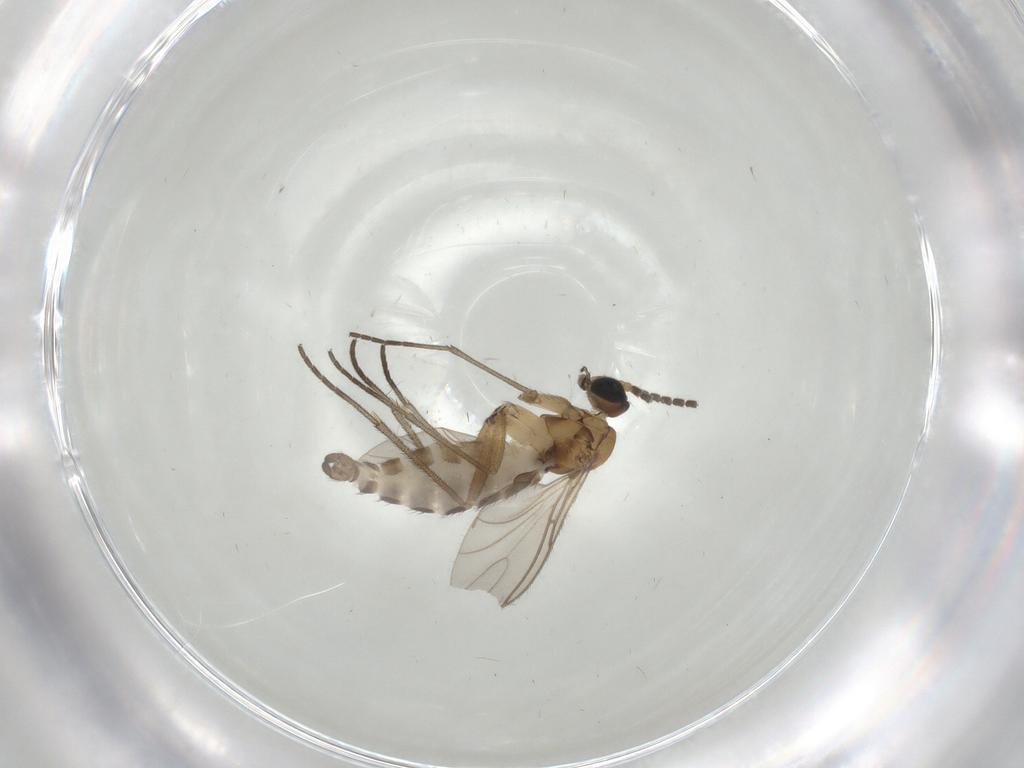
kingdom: Animalia
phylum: Arthropoda
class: Insecta
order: Diptera
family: Sciaridae
